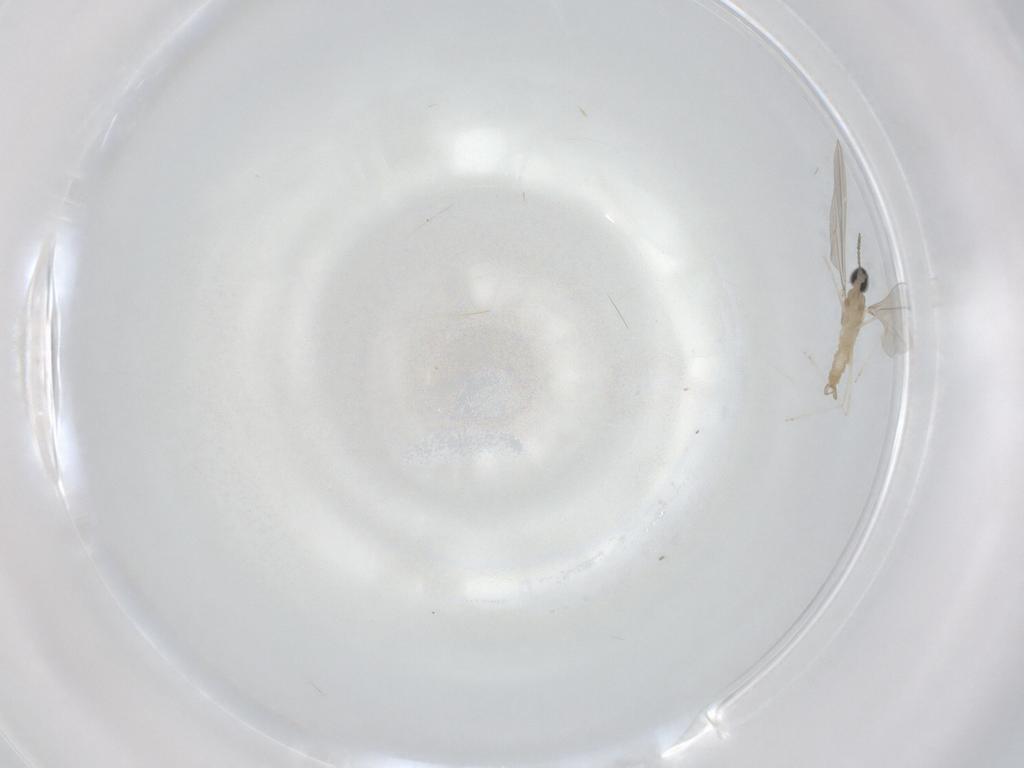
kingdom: Animalia
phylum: Arthropoda
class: Insecta
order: Diptera
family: Cecidomyiidae
